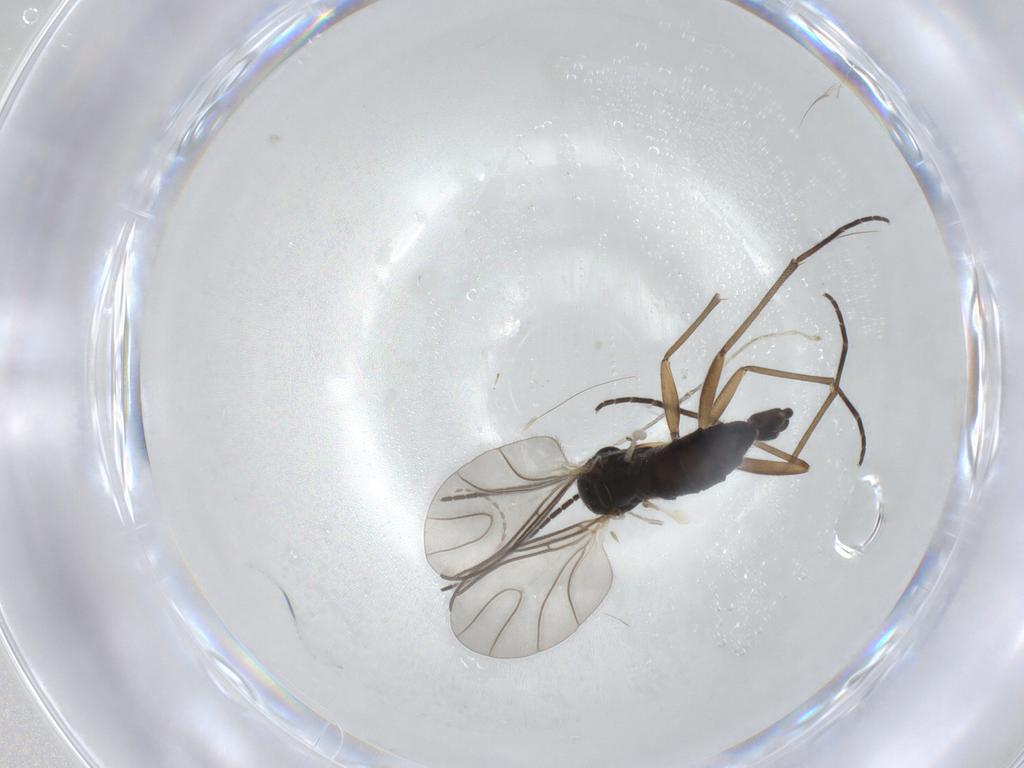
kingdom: Animalia
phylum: Arthropoda
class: Insecta
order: Diptera
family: Sciaridae
